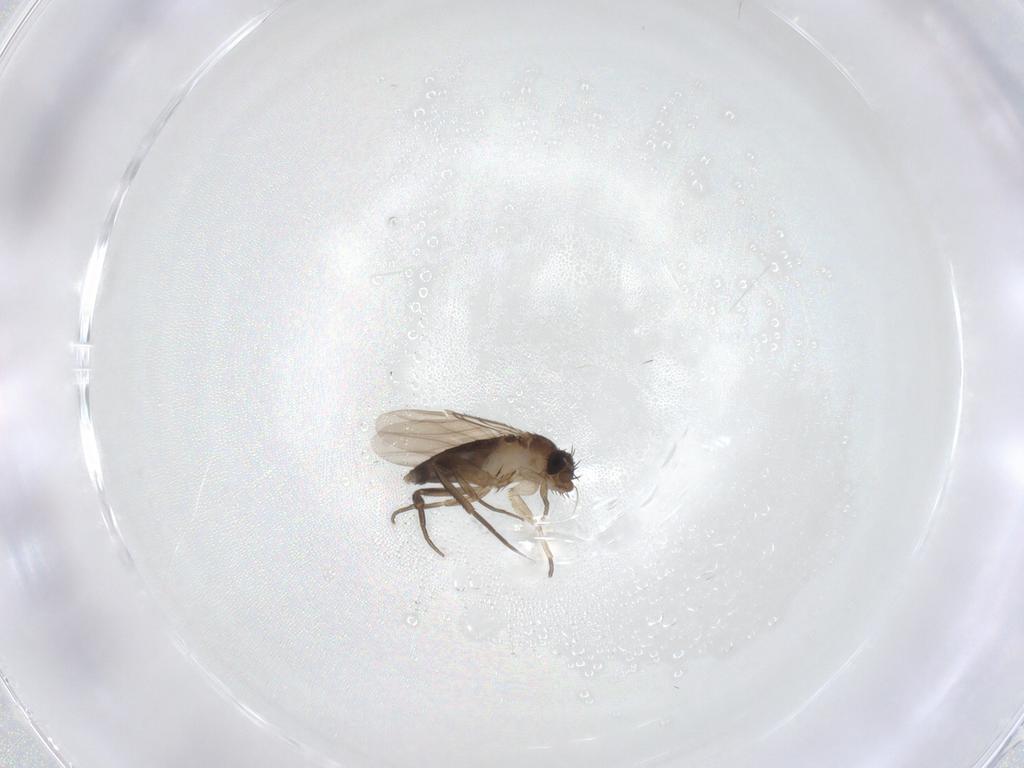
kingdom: Animalia
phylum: Arthropoda
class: Insecta
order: Diptera
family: Phoridae
